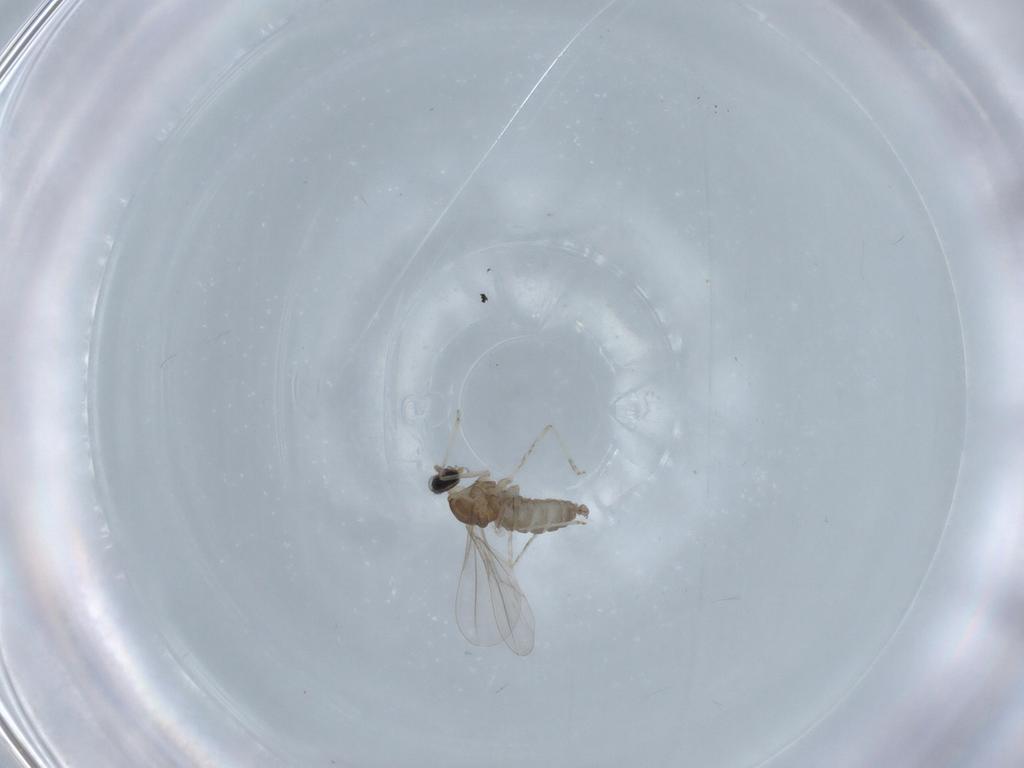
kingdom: Animalia
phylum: Arthropoda
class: Insecta
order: Diptera
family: Cecidomyiidae
